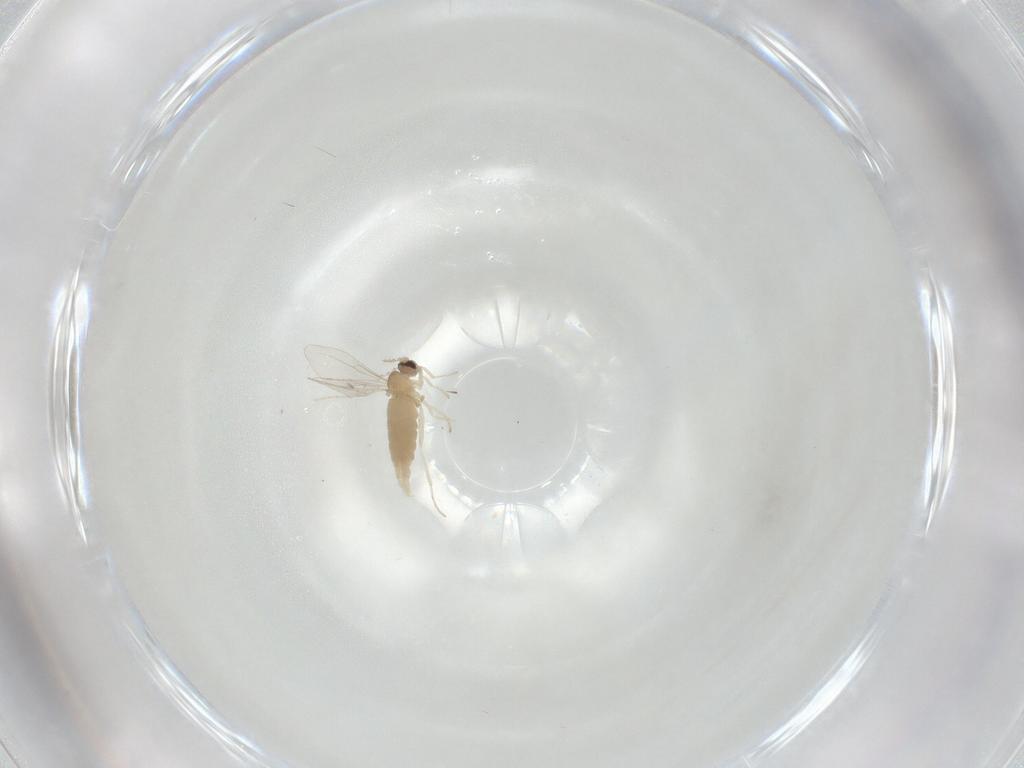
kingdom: Animalia
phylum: Arthropoda
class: Insecta
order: Diptera
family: Cecidomyiidae
